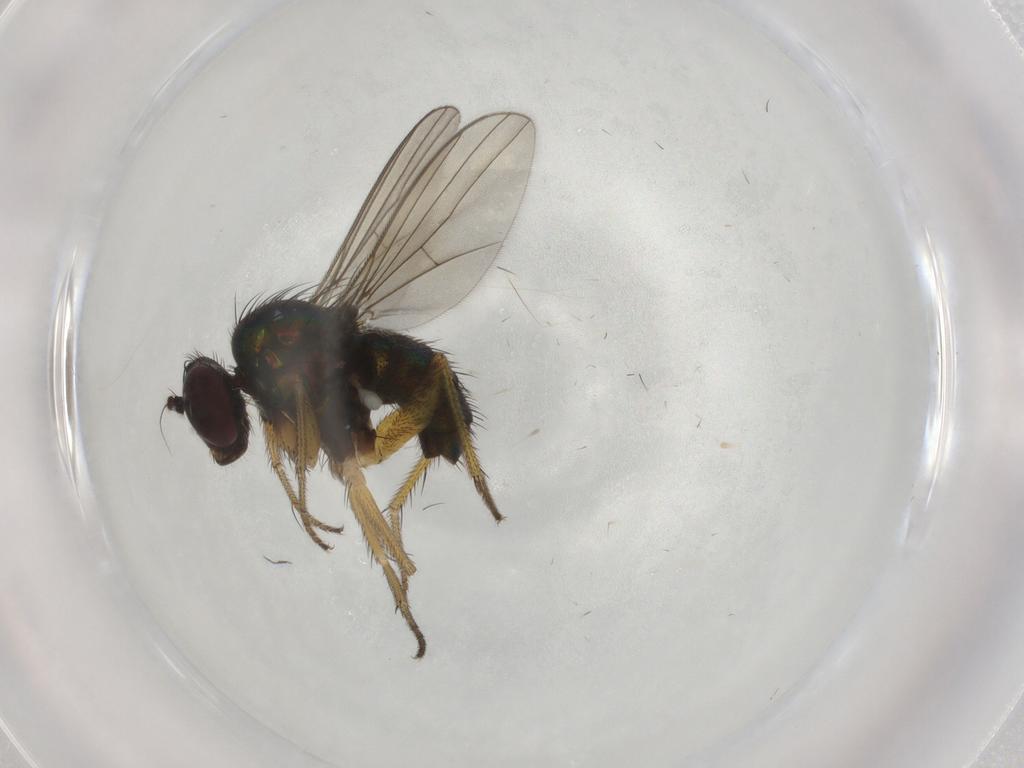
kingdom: Animalia
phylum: Arthropoda
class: Insecta
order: Diptera
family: Dolichopodidae
